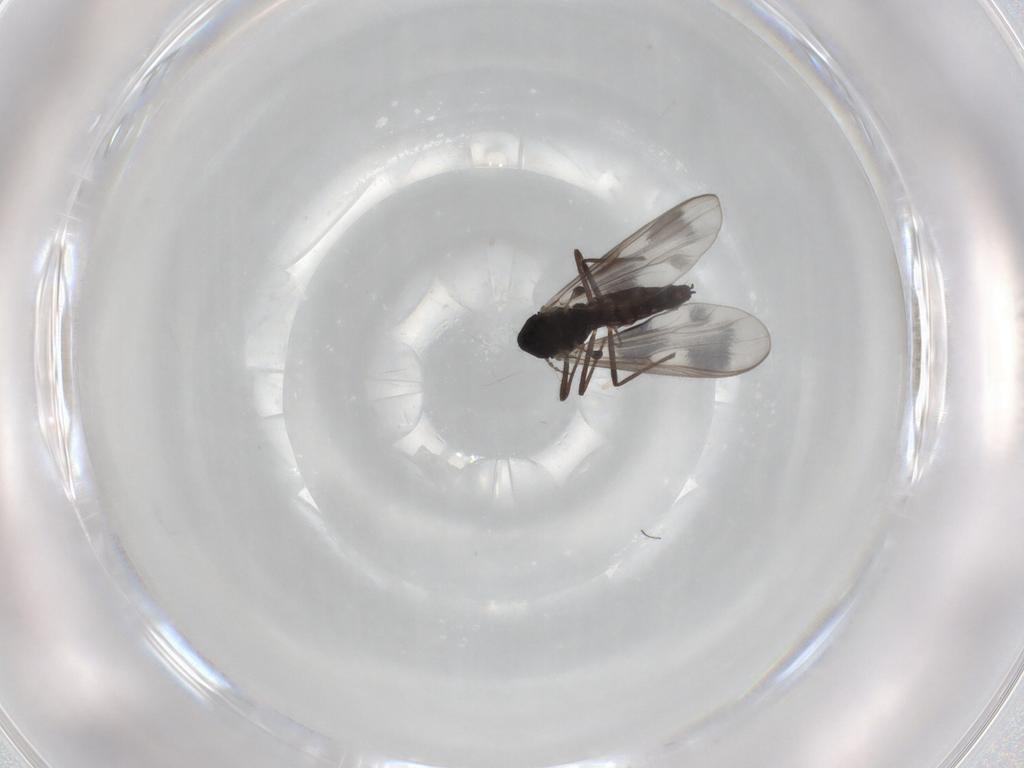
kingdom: Animalia
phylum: Arthropoda
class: Insecta
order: Diptera
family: Chironomidae
